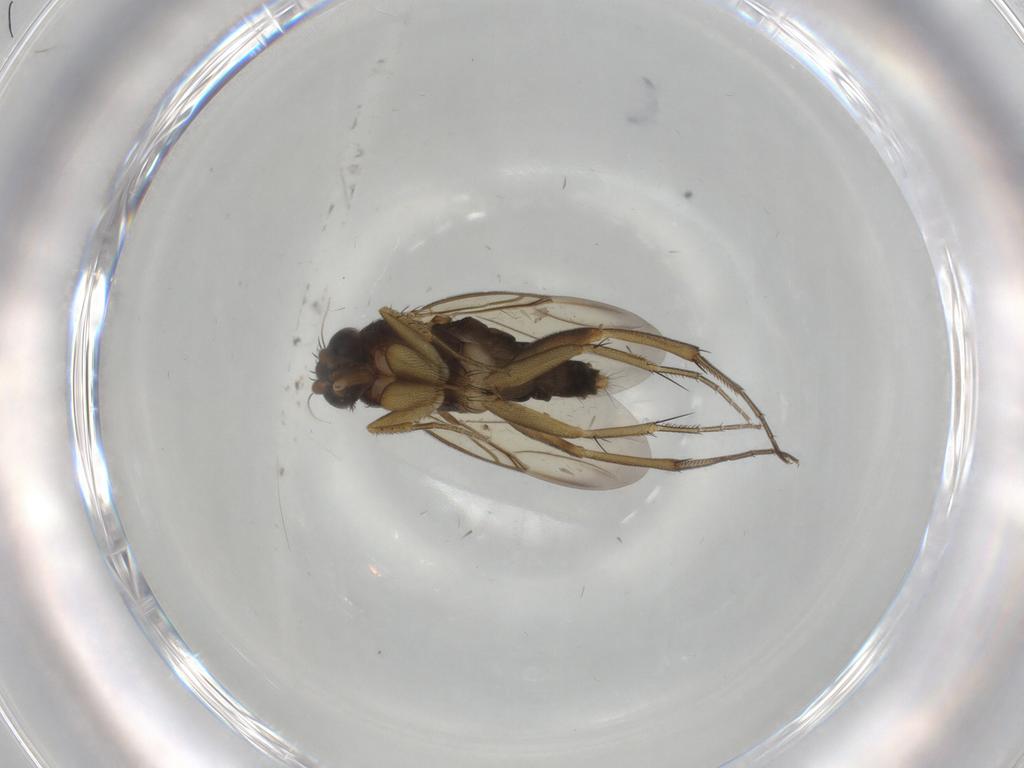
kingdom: Animalia
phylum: Arthropoda
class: Insecta
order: Diptera
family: Phoridae
